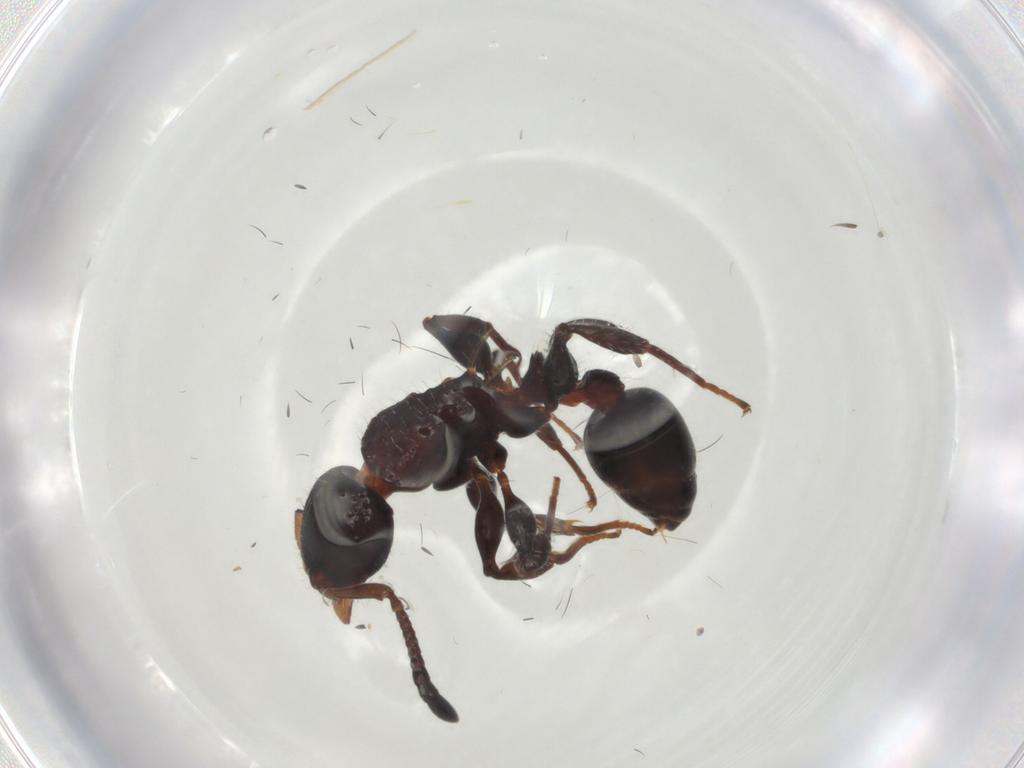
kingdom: Animalia
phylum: Arthropoda
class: Insecta
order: Hymenoptera
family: Formicidae
